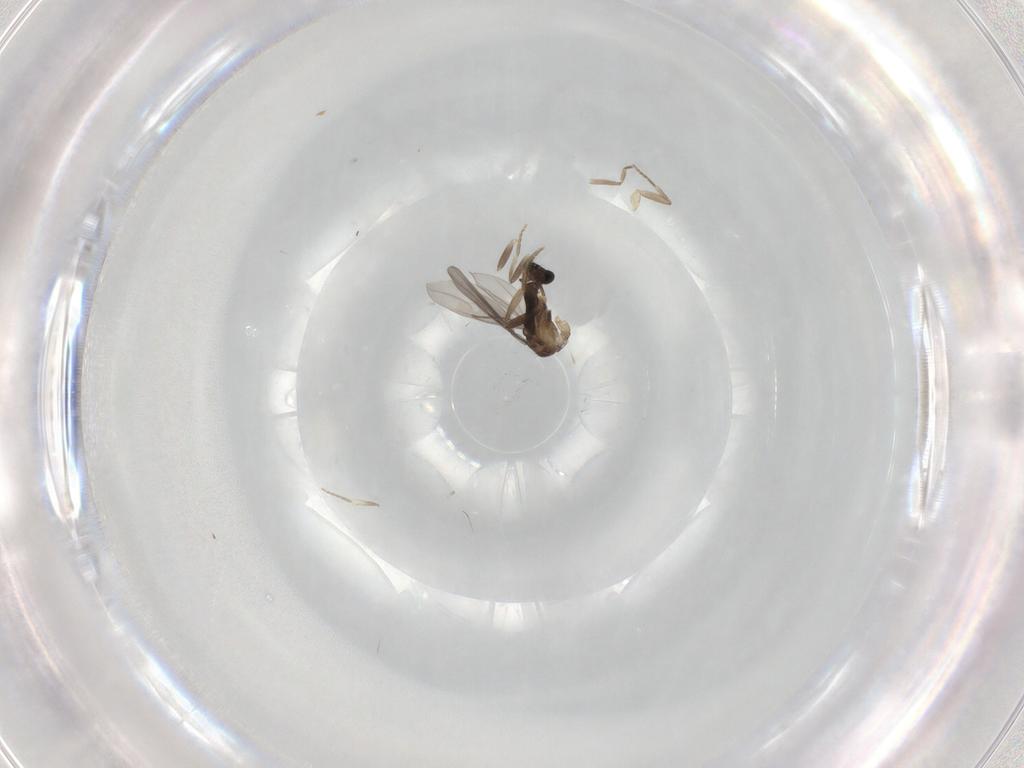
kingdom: Animalia
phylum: Arthropoda
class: Insecta
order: Diptera
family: Phoridae
